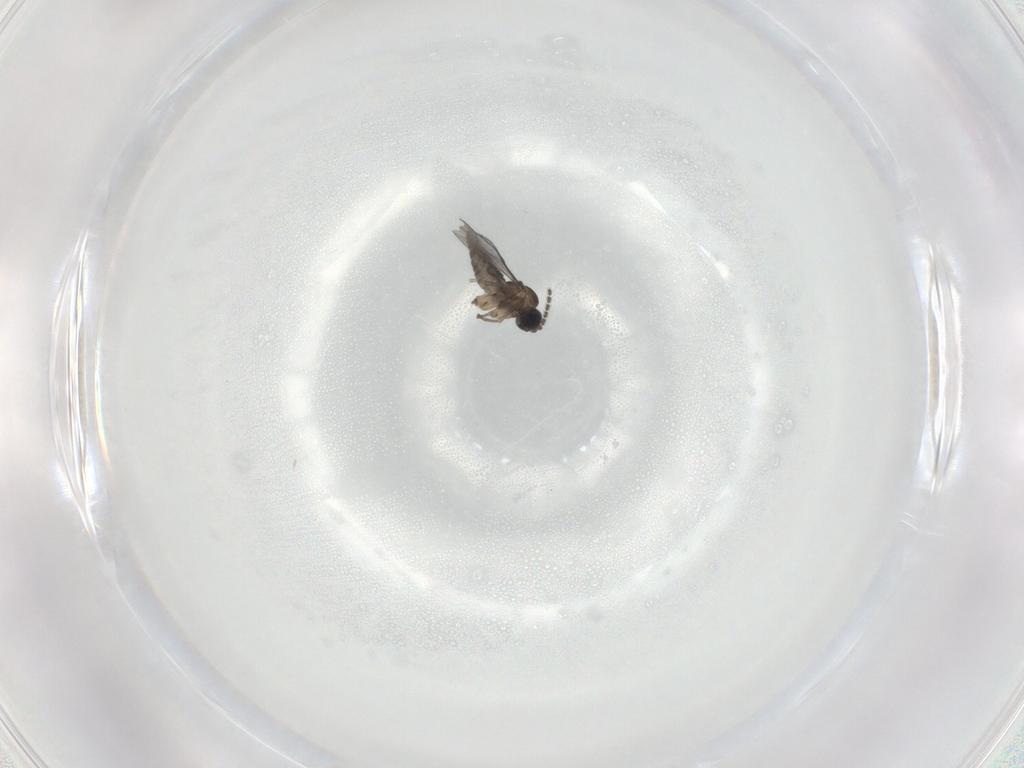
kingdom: Animalia
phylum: Arthropoda
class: Insecta
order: Diptera
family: Sciaridae
